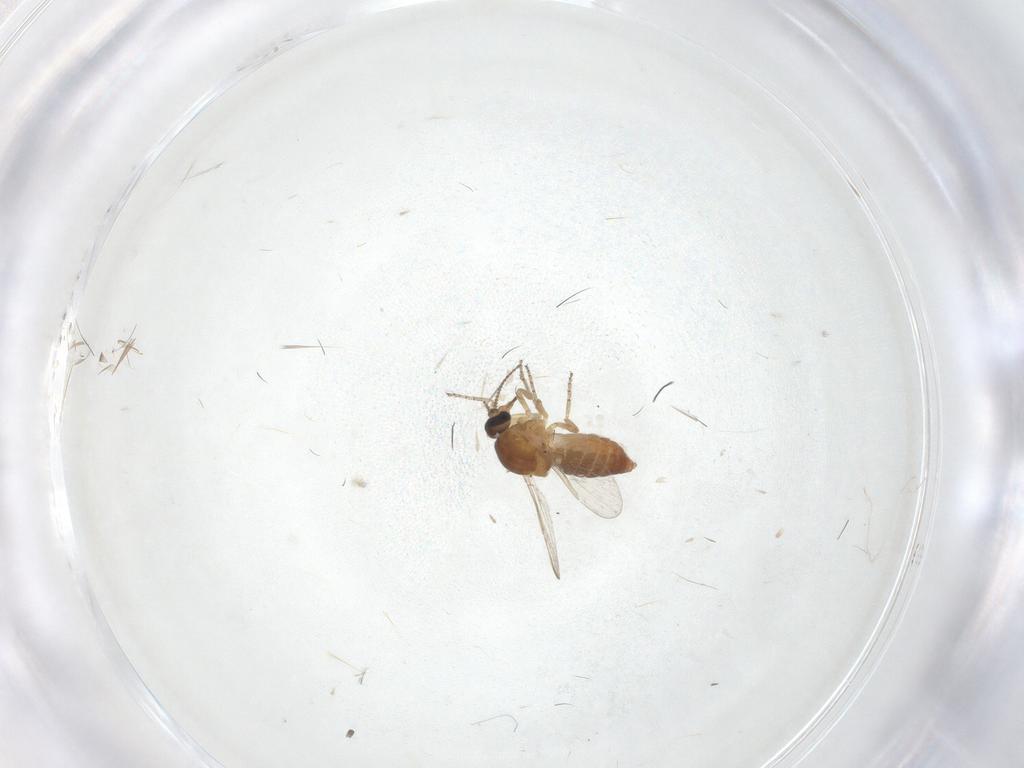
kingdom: Animalia
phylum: Arthropoda
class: Insecta
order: Diptera
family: Ceratopogonidae
